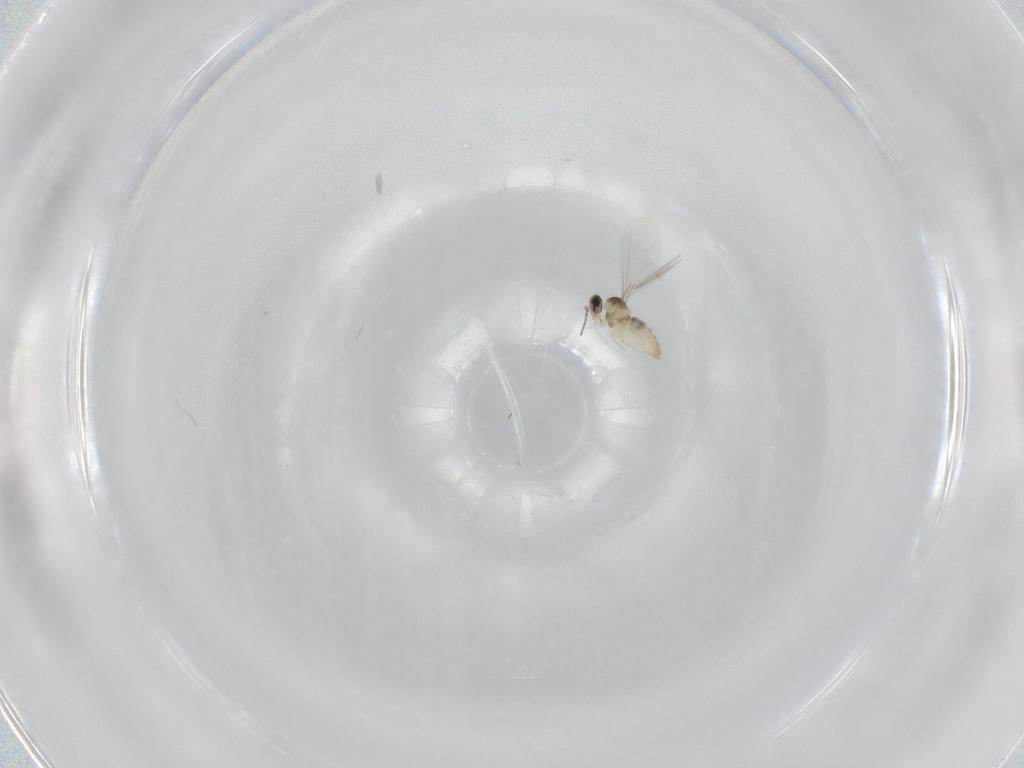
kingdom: Animalia
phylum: Arthropoda
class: Insecta
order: Diptera
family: Cecidomyiidae
